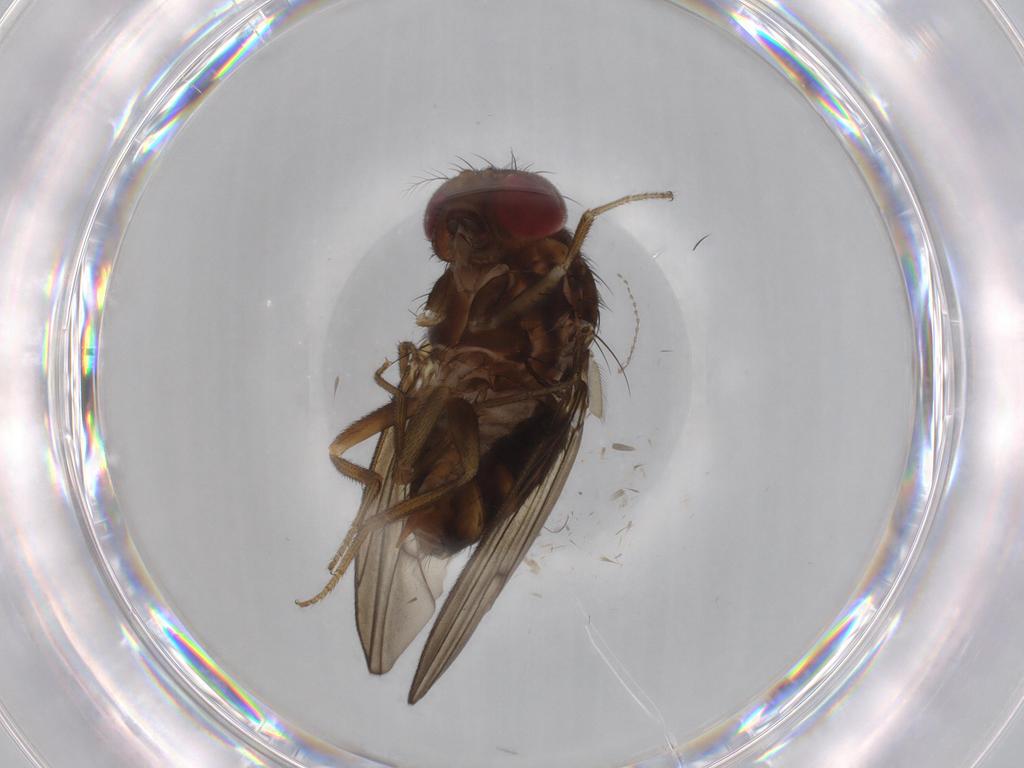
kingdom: Animalia
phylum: Arthropoda
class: Insecta
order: Diptera
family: Drosophilidae
